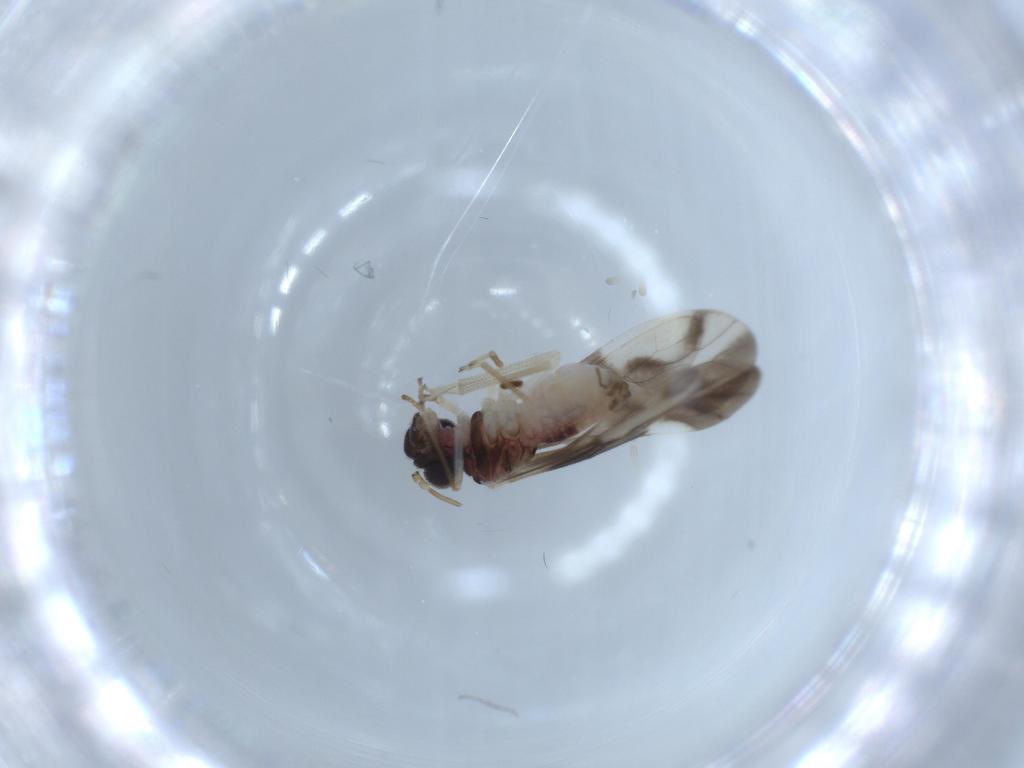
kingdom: Animalia
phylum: Arthropoda
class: Insecta
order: Psocodea
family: Caeciliusidae
